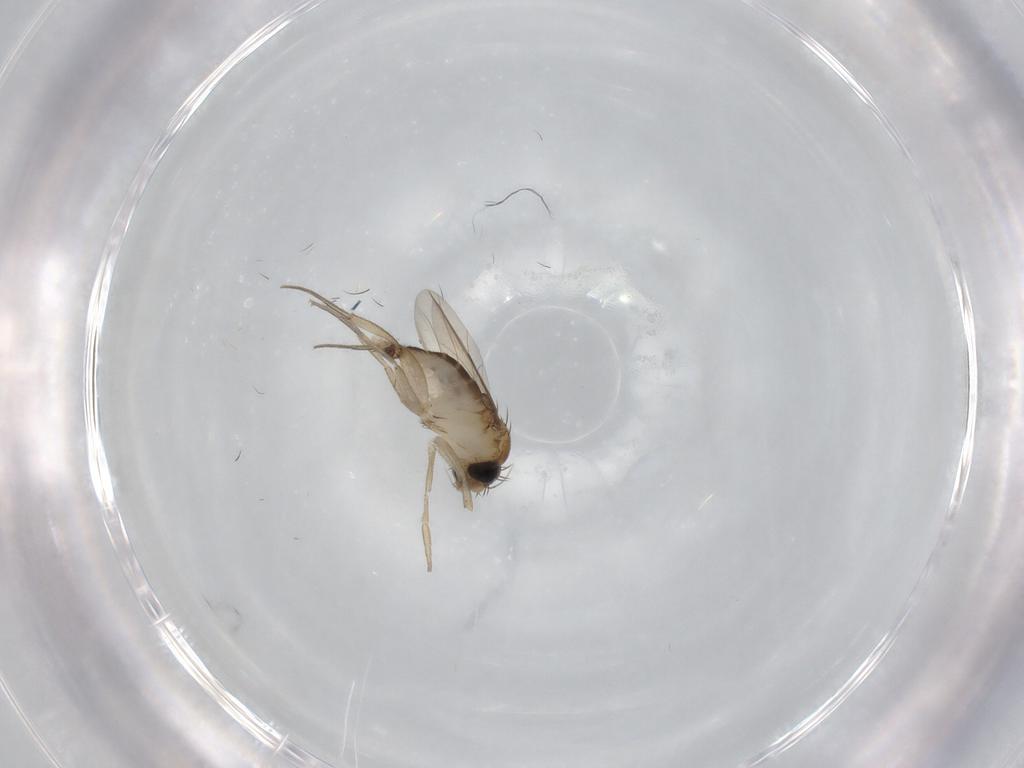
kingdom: Animalia
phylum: Arthropoda
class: Insecta
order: Diptera
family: Phoridae
